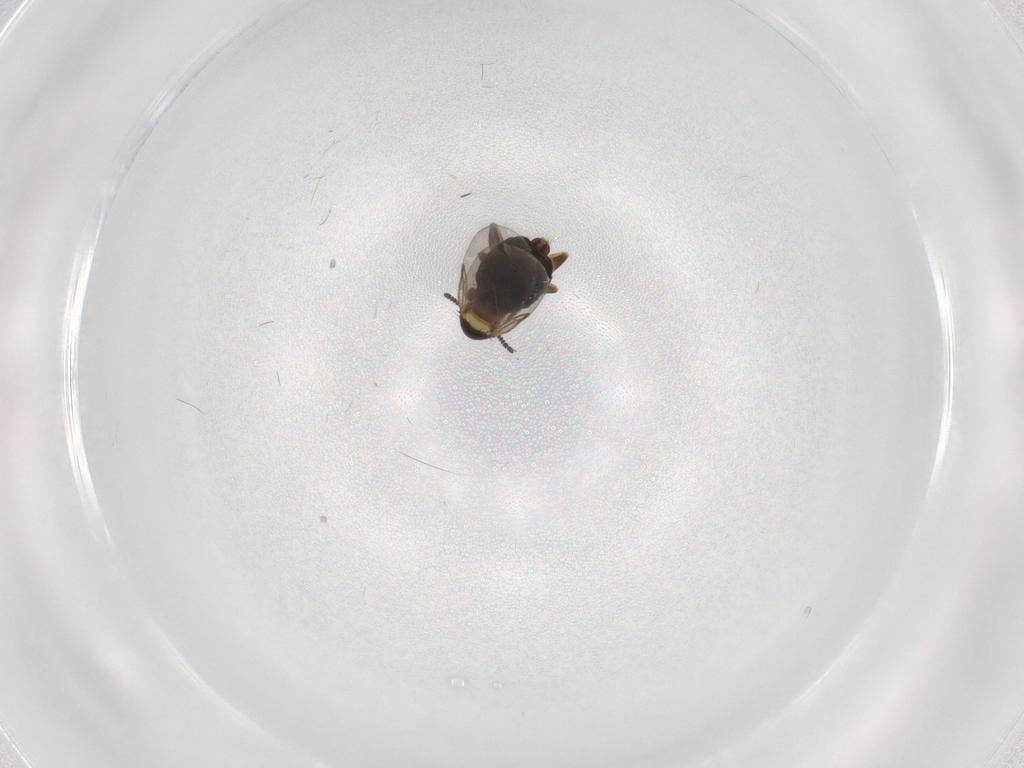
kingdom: Animalia
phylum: Arthropoda
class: Insecta
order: Diptera
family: Scatopsidae
